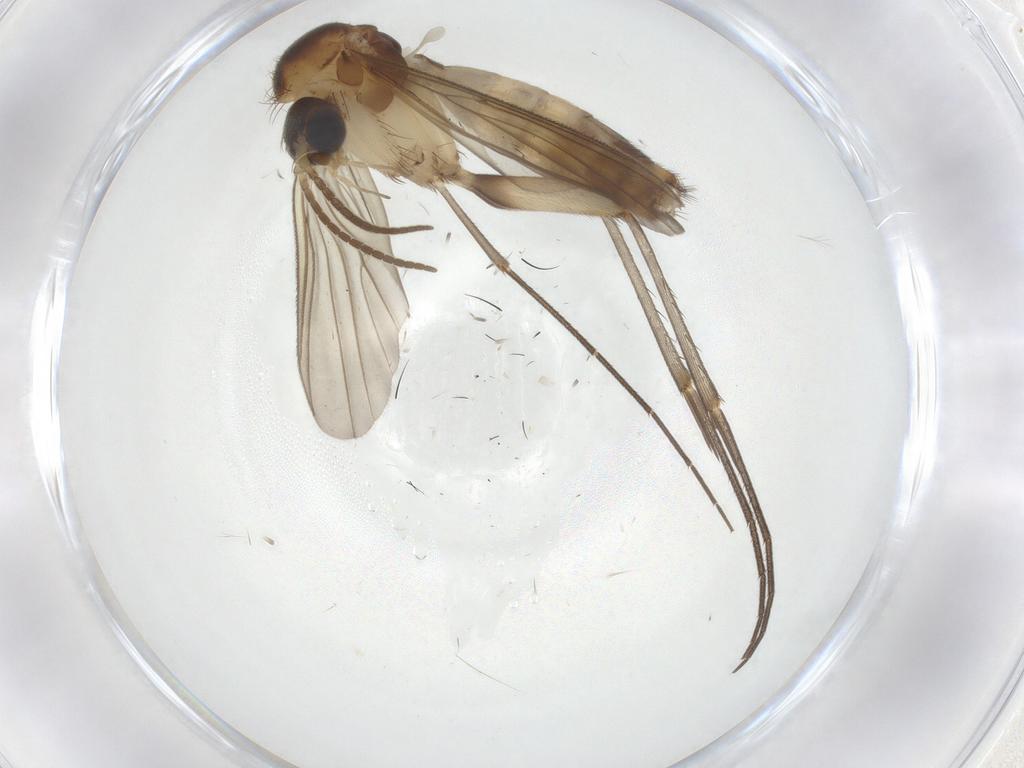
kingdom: Animalia
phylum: Arthropoda
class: Insecta
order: Diptera
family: Mycetophilidae
